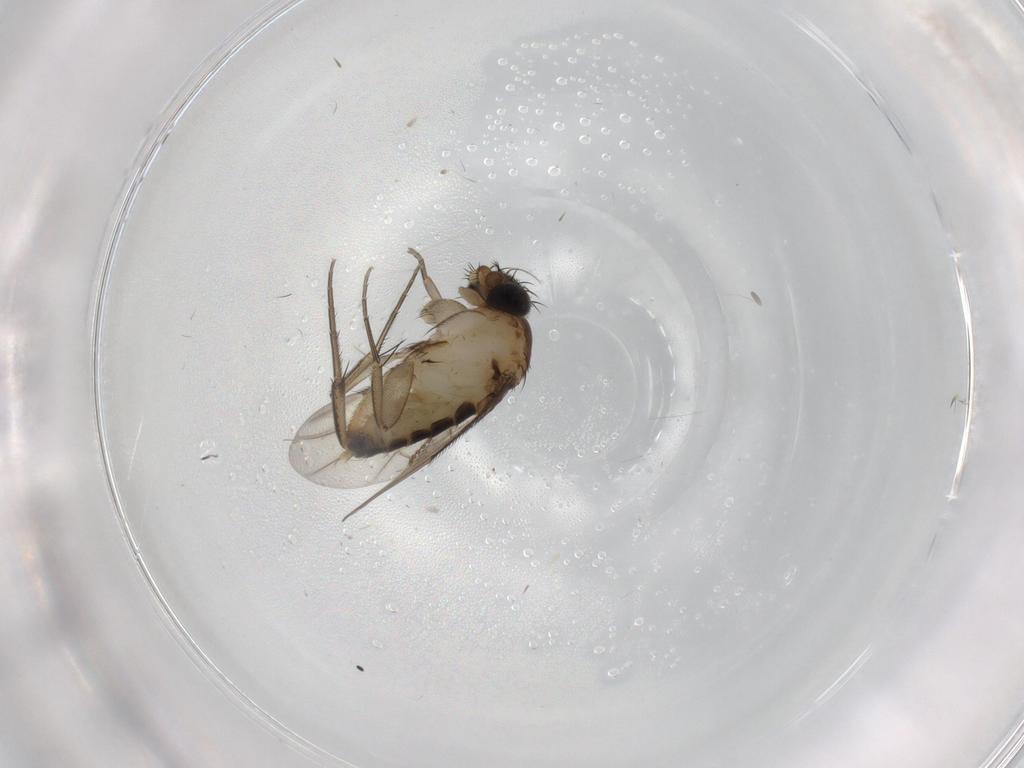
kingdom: Animalia
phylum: Arthropoda
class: Insecta
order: Diptera
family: Phoridae
